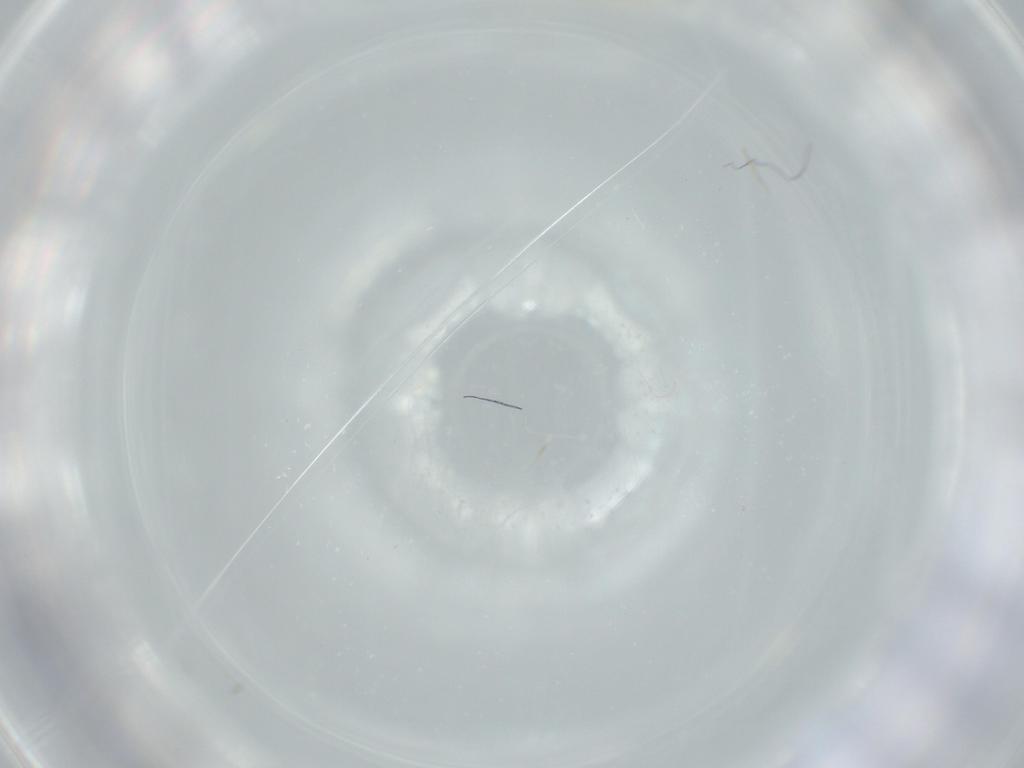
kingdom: Animalia
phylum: Arthropoda
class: Insecta
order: Diptera
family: Cecidomyiidae
